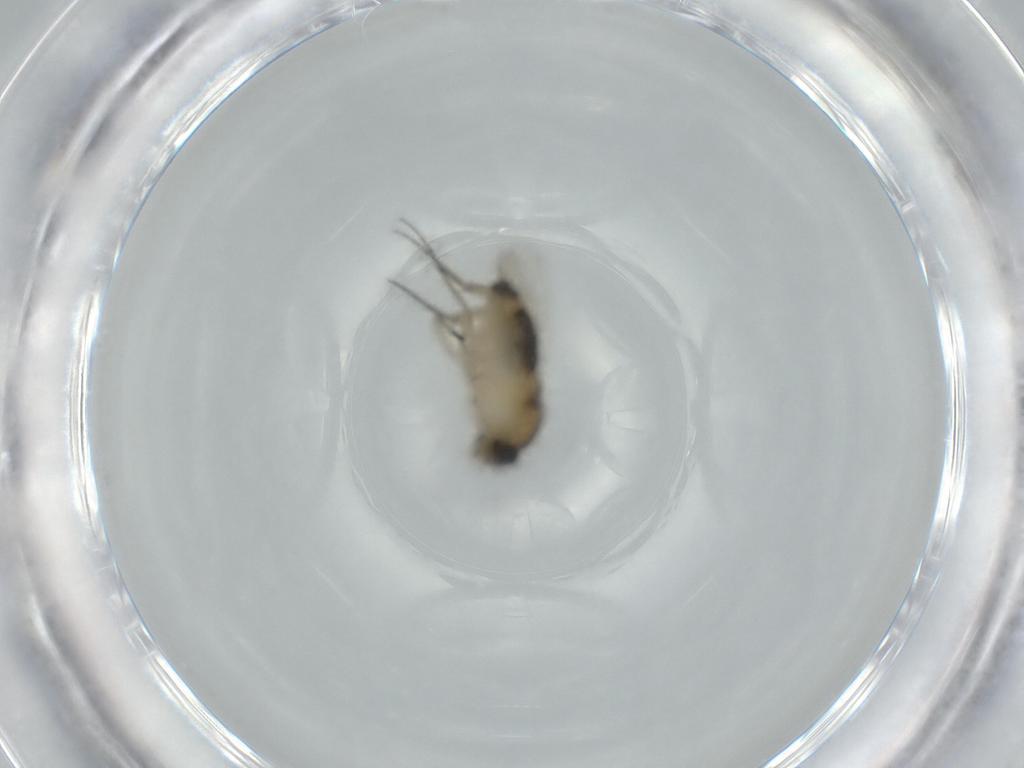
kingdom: Animalia
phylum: Arthropoda
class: Insecta
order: Diptera
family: Phoridae
